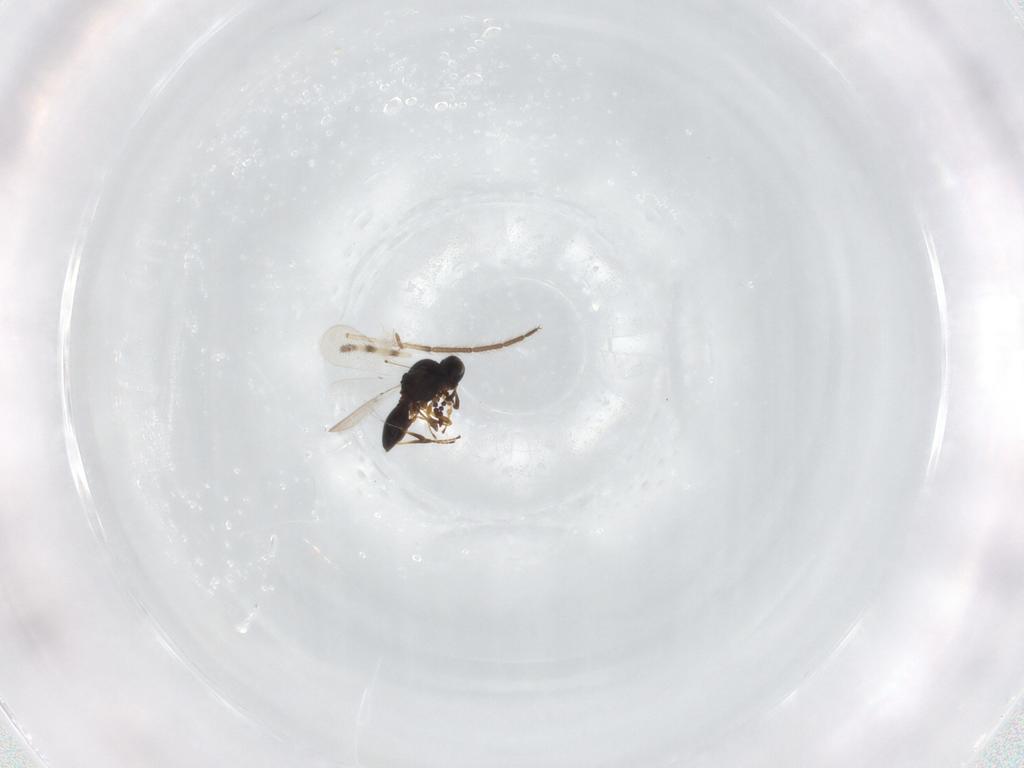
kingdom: Animalia
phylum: Arthropoda
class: Insecta
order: Hymenoptera
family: Platygastridae
